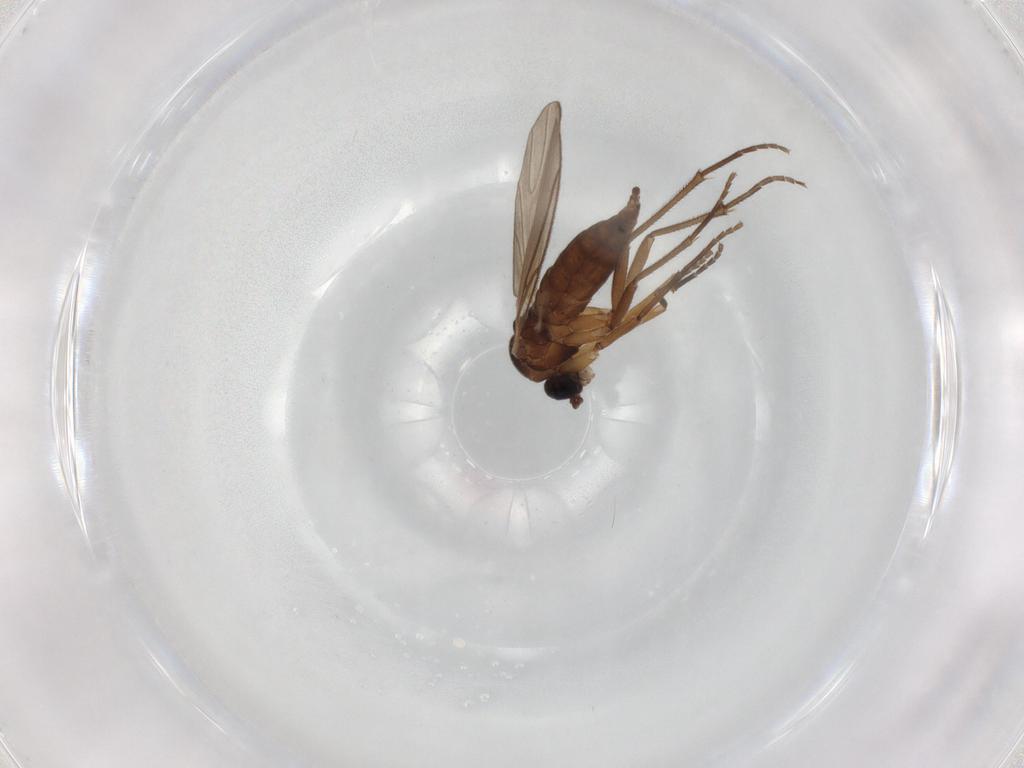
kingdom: Animalia
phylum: Arthropoda
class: Insecta
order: Diptera
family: Sciaridae
